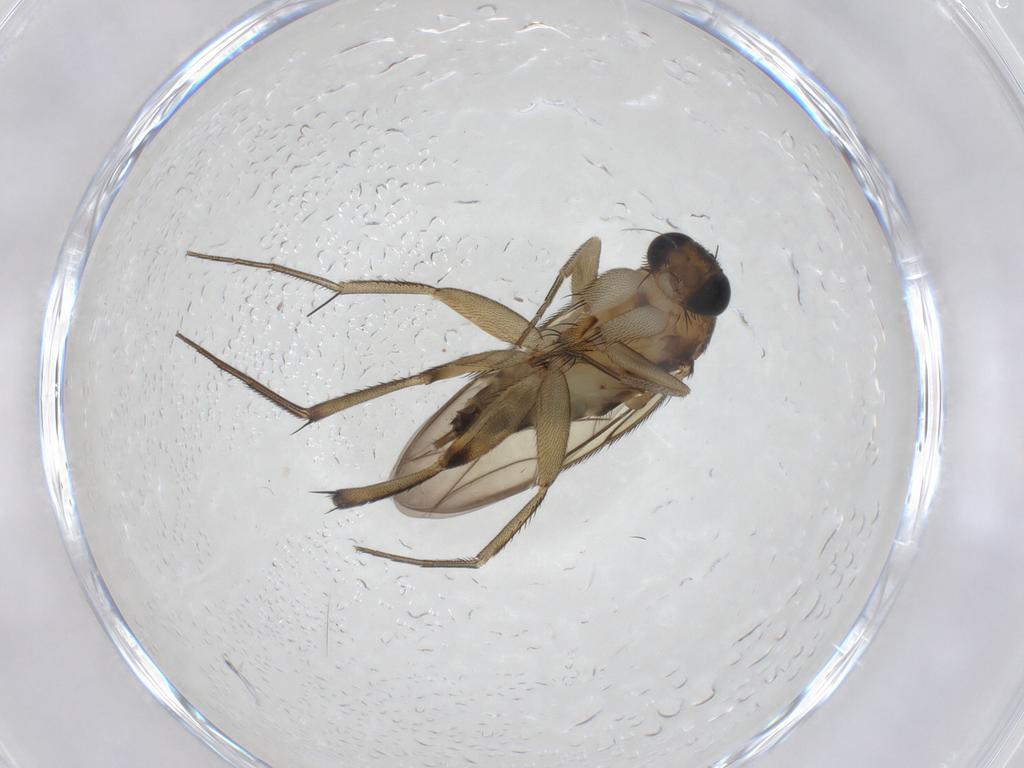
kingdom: Animalia
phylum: Arthropoda
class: Insecta
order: Diptera
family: Phoridae
